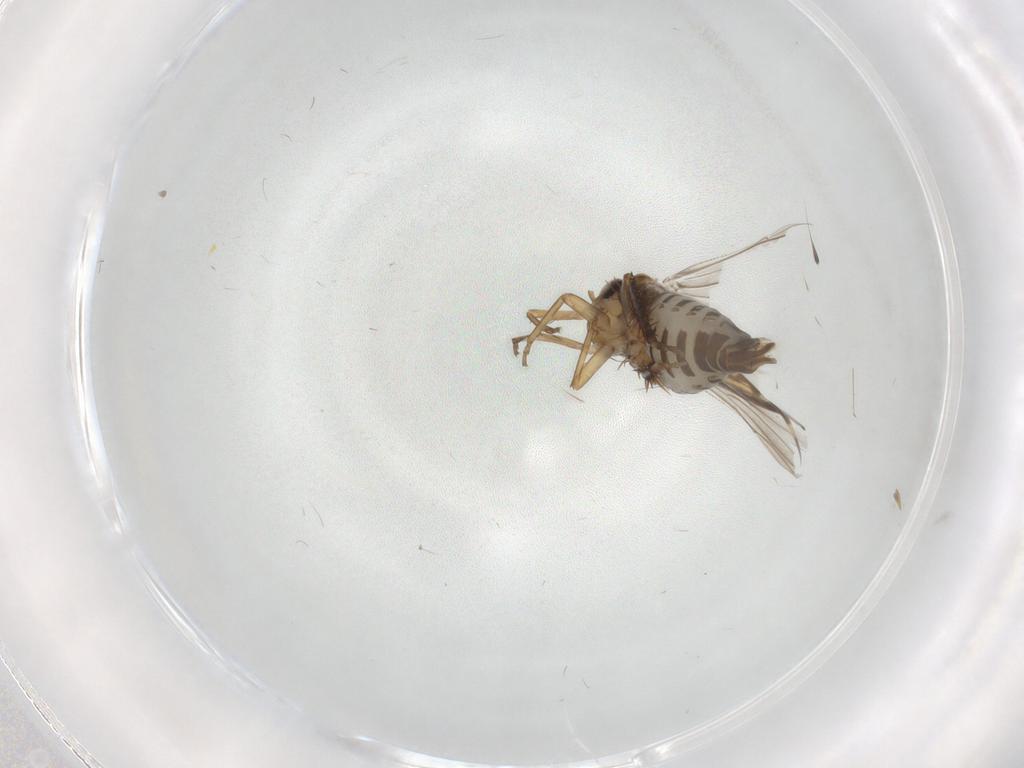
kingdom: Animalia
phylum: Arthropoda
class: Insecta
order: Hemiptera
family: Cicadellidae
